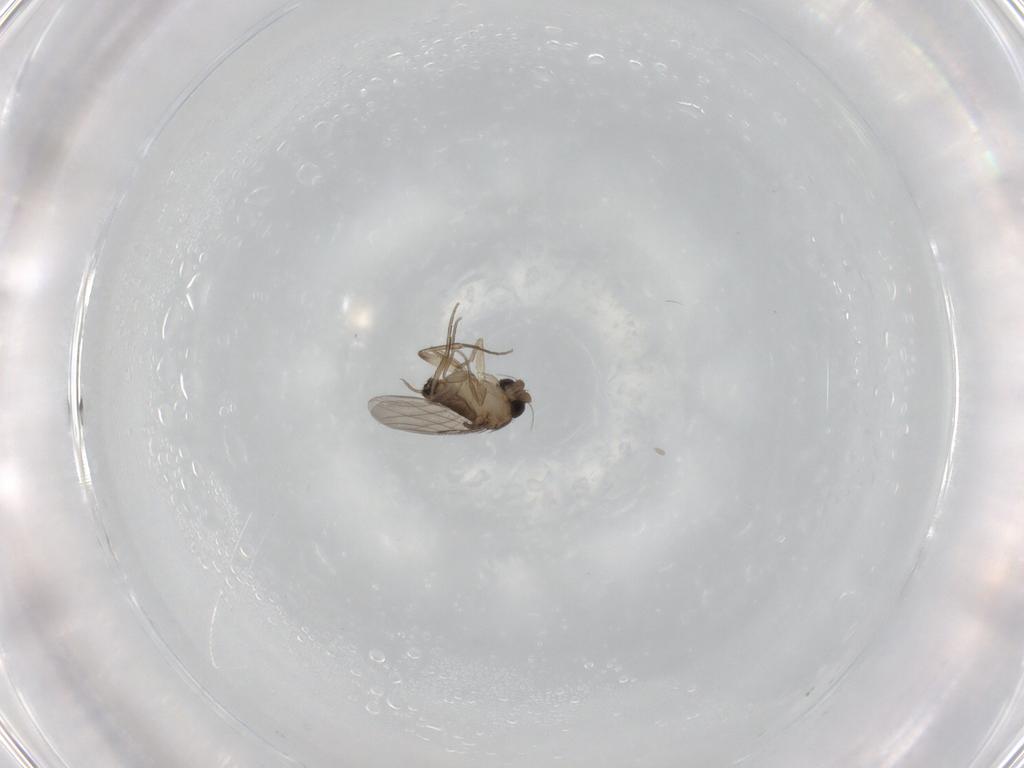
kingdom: Animalia
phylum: Arthropoda
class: Insecta
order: Diptera
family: Phoridae
